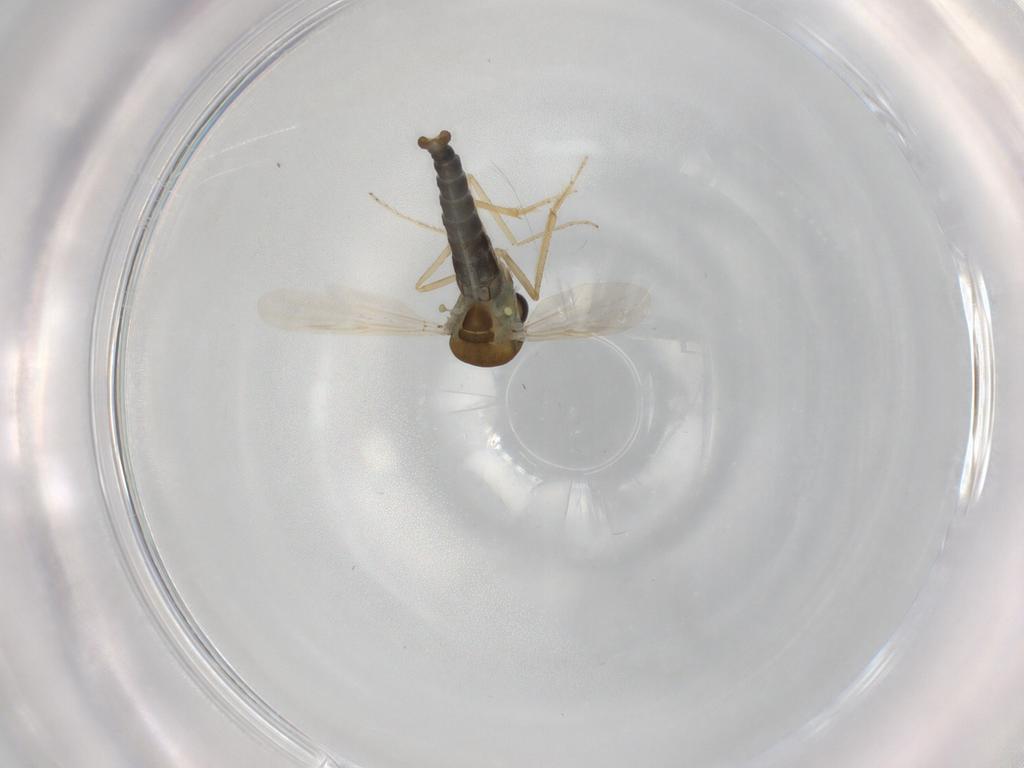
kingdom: Animalia
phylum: Arthropoda
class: Insecta
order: Diptera
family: Ceratopogonidae
